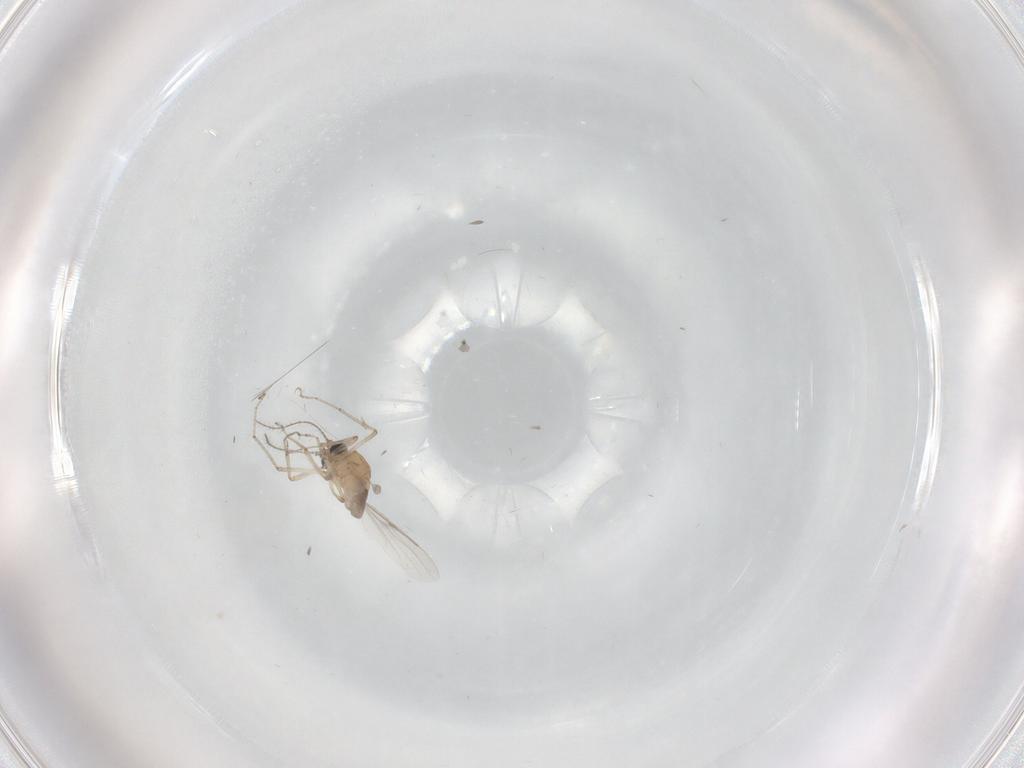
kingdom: Animalia
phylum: Arthropoda
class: Insecta
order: Diptera
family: Ceratopogonidae
